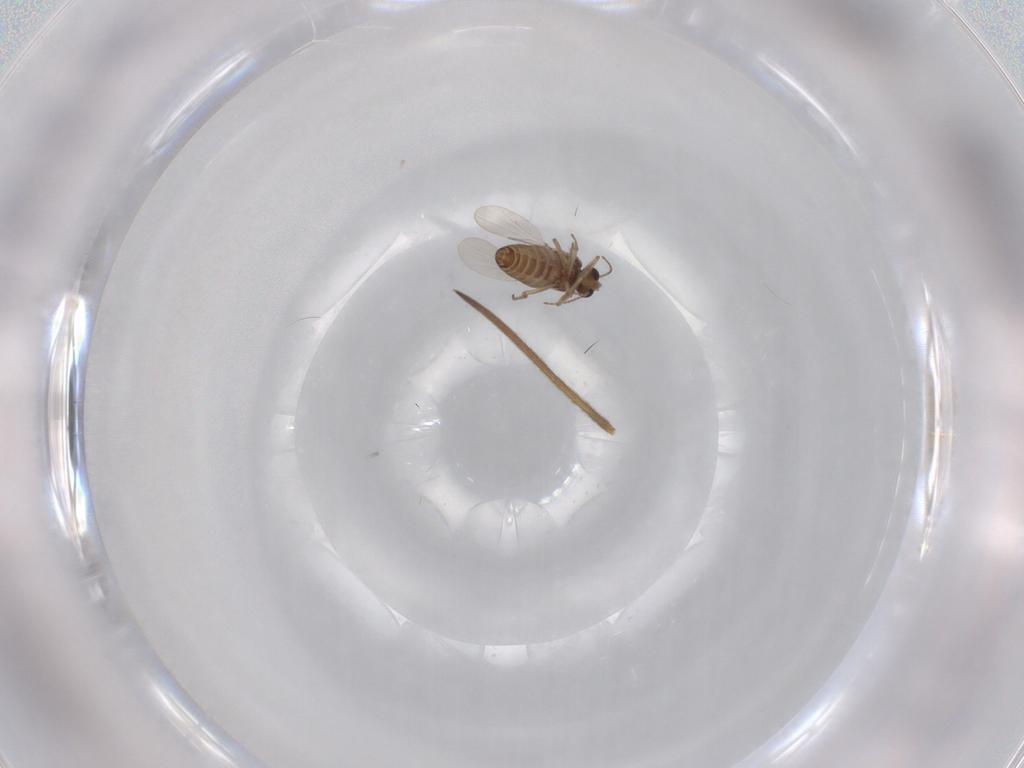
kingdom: Animalia
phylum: Arthropoda
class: Insecta
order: Diptera
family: Ceratopogonidae
